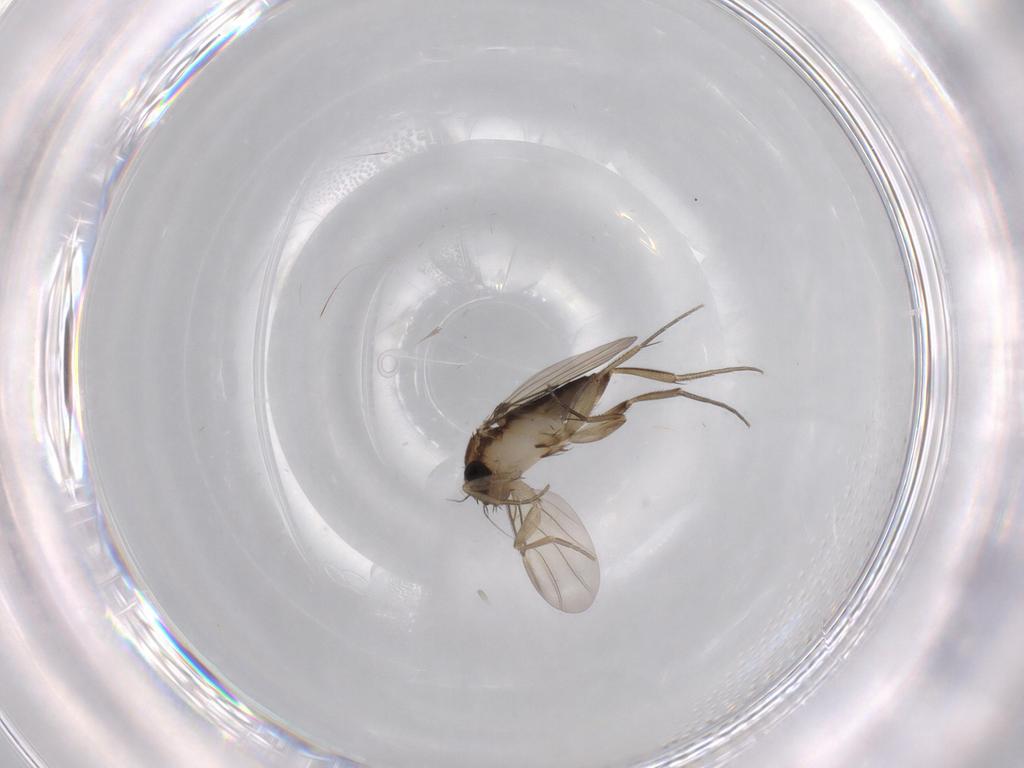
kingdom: Animalia
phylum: Arthropoda
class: Insecta
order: Diptera
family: Phoridae
